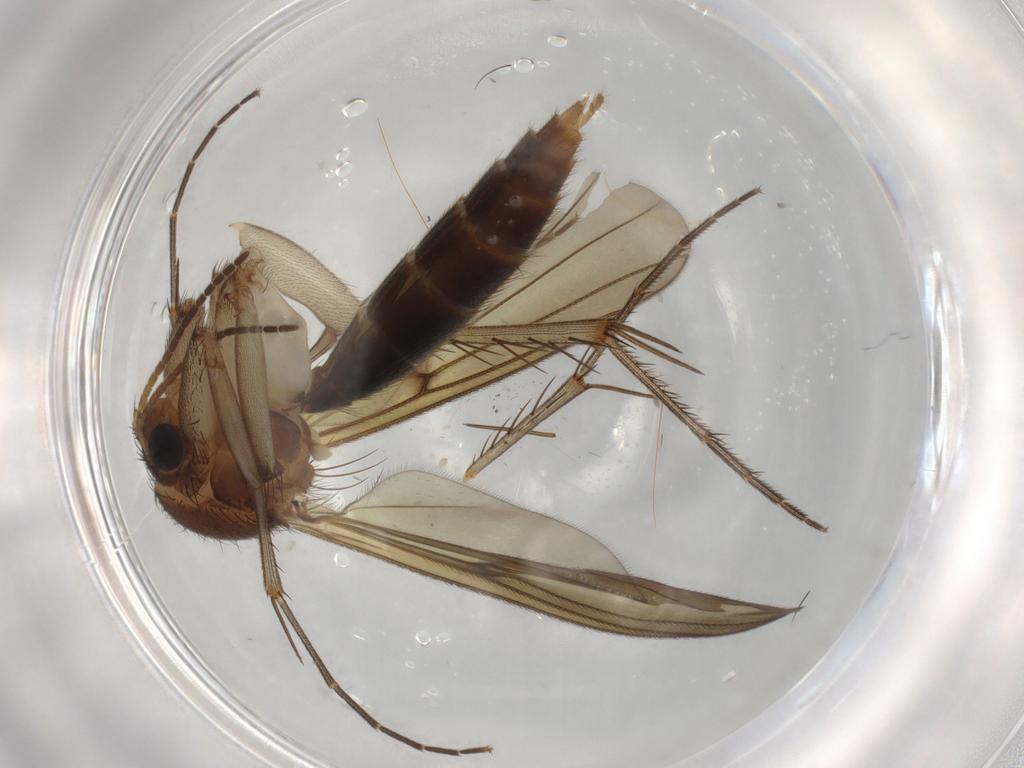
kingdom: Animalia
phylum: Arthropoda
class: Insecta
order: Diptera
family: Mycetophilidae
